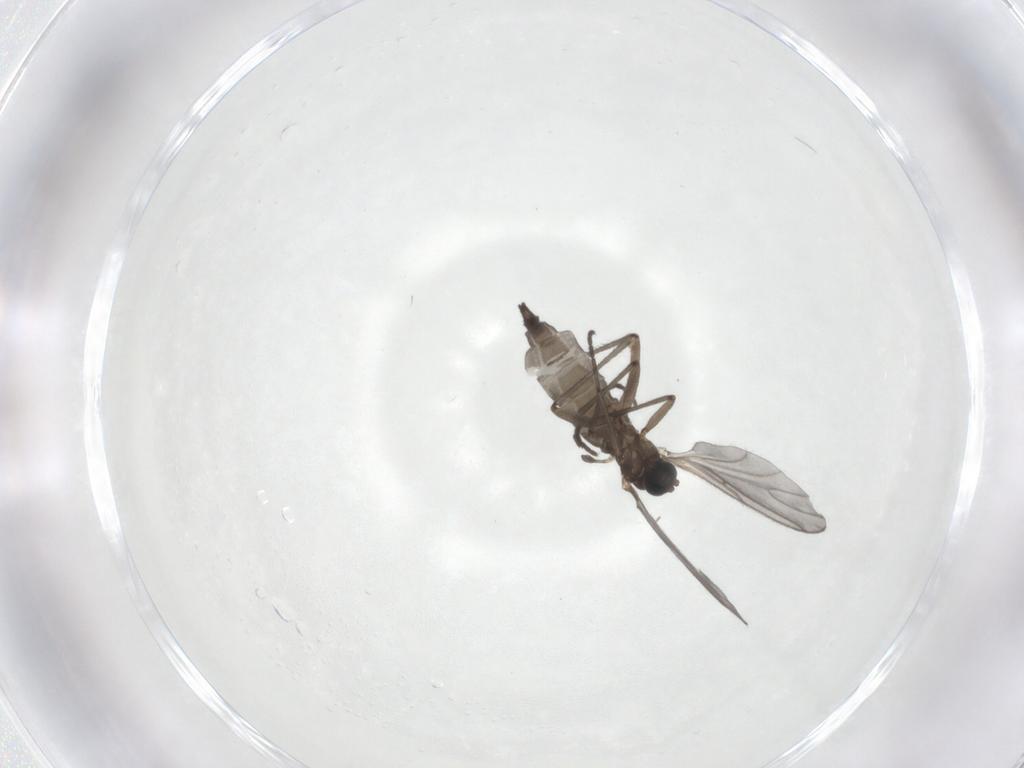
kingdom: Animalia
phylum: Arthropoda
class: Insecta
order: Diptera
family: Sciaridae
